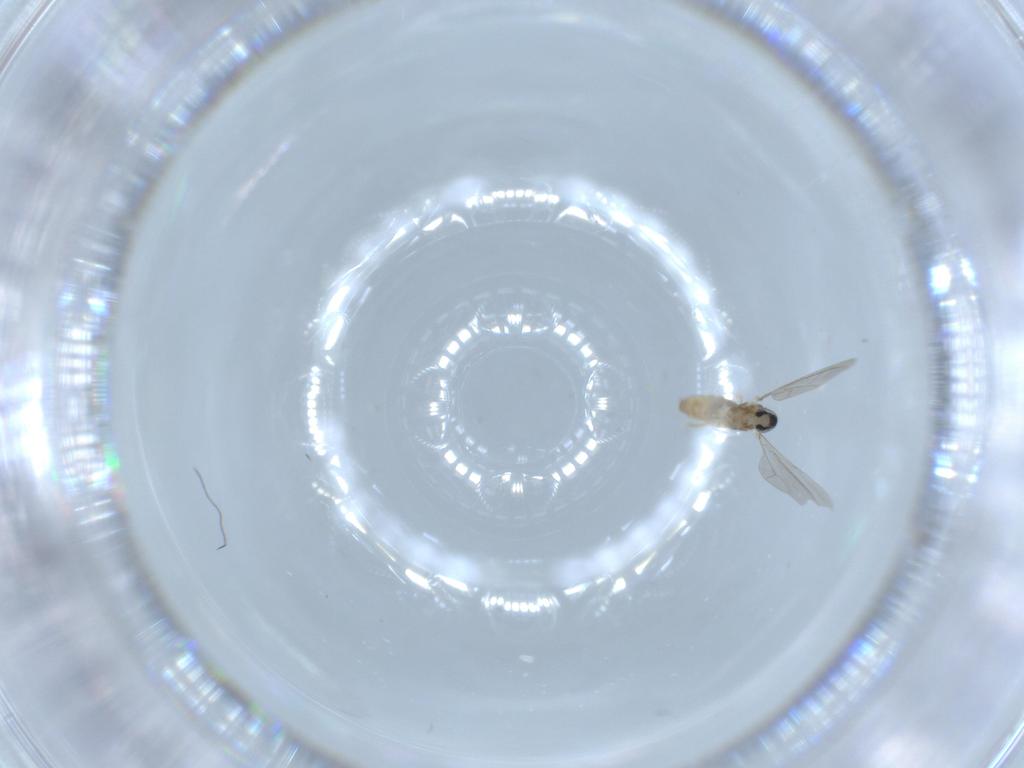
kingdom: Animalia
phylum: Arthropoda
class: Insecta
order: Diptera
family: Cecidomyiidae
